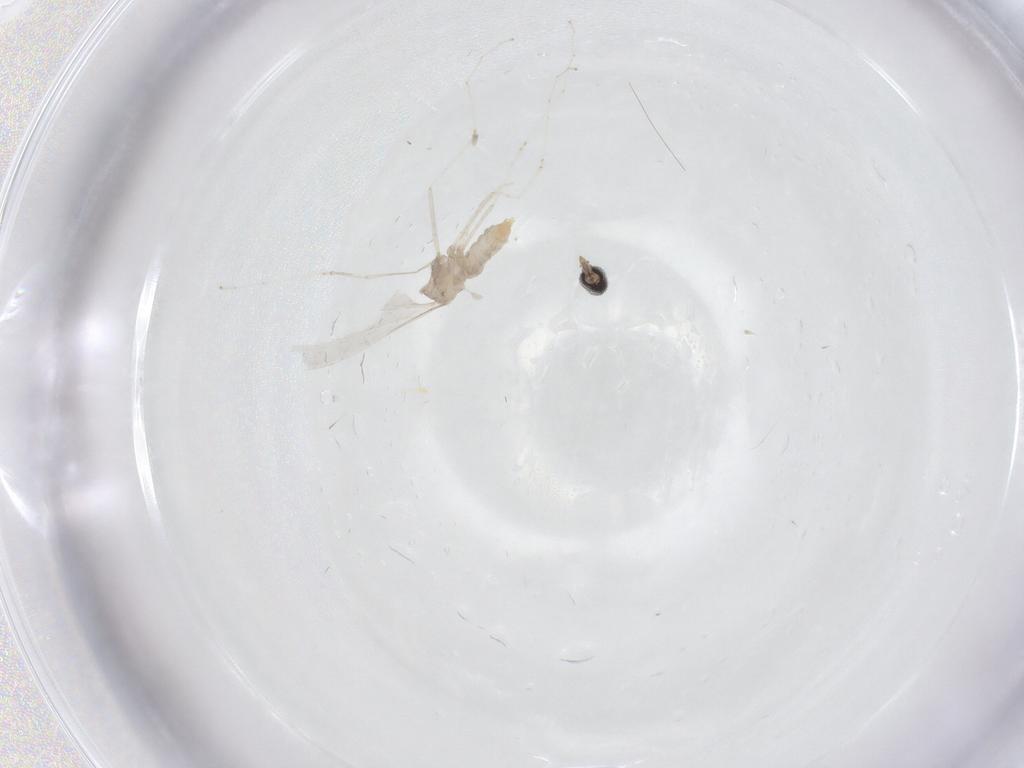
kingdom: Animalia
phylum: Arthropoda
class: Insecta
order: Diptera
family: Cecidomyiidae
